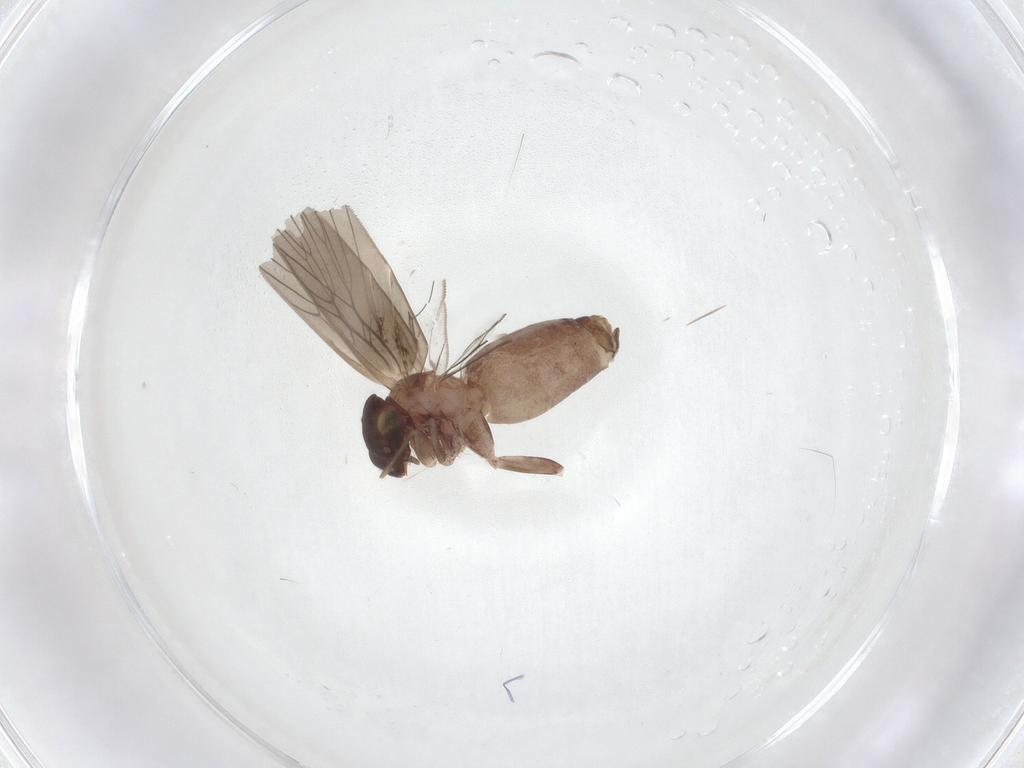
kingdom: Animalia
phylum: Arthropoda
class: Insecta
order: Psocodea
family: Lepidopsocidae
